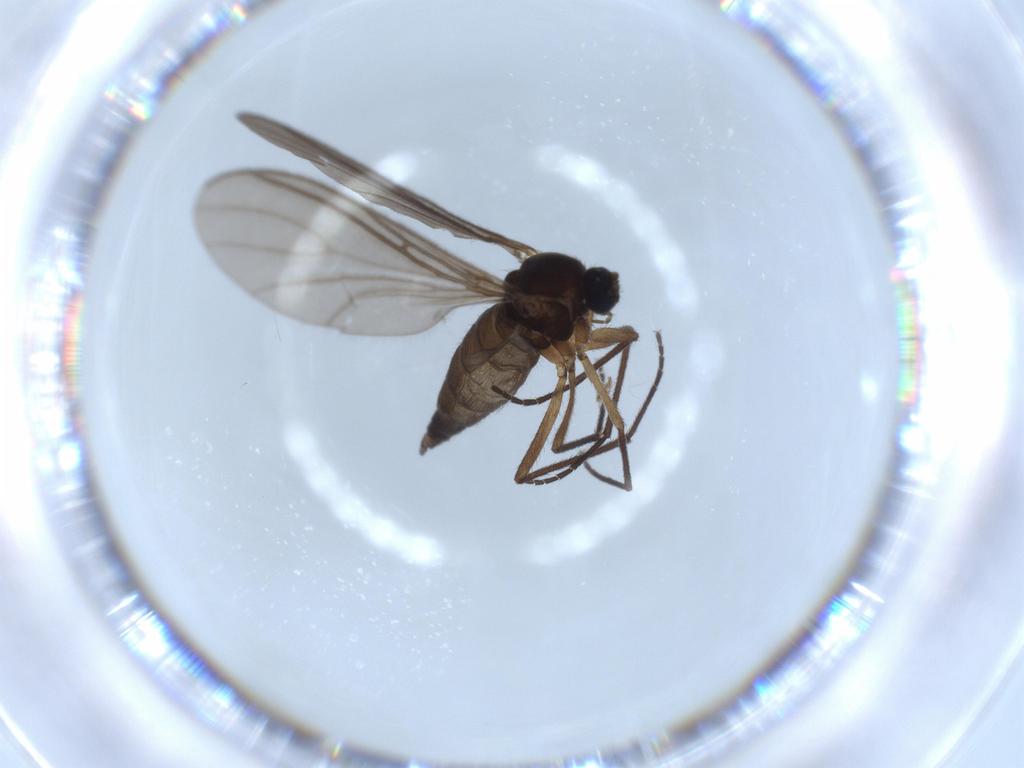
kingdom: Animalia
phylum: Arthropoda
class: Insecta
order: Diptera
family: Sciaridae
